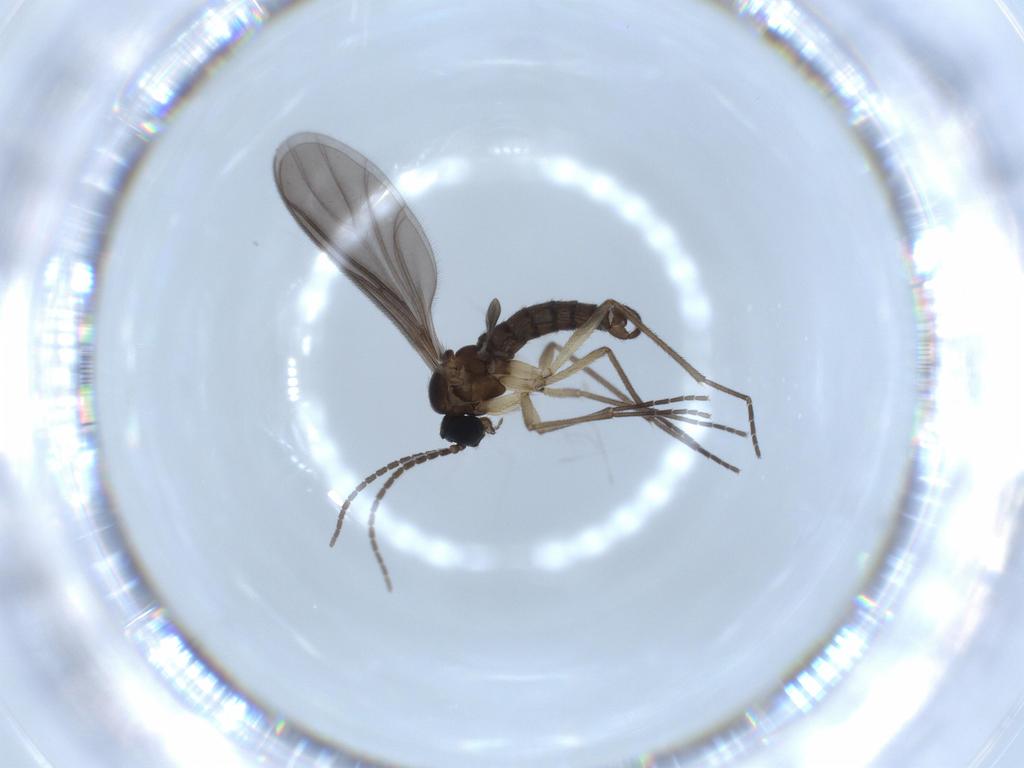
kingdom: Animalia
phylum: Arthropoda
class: Insecta
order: Diptera
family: Sciaridae
